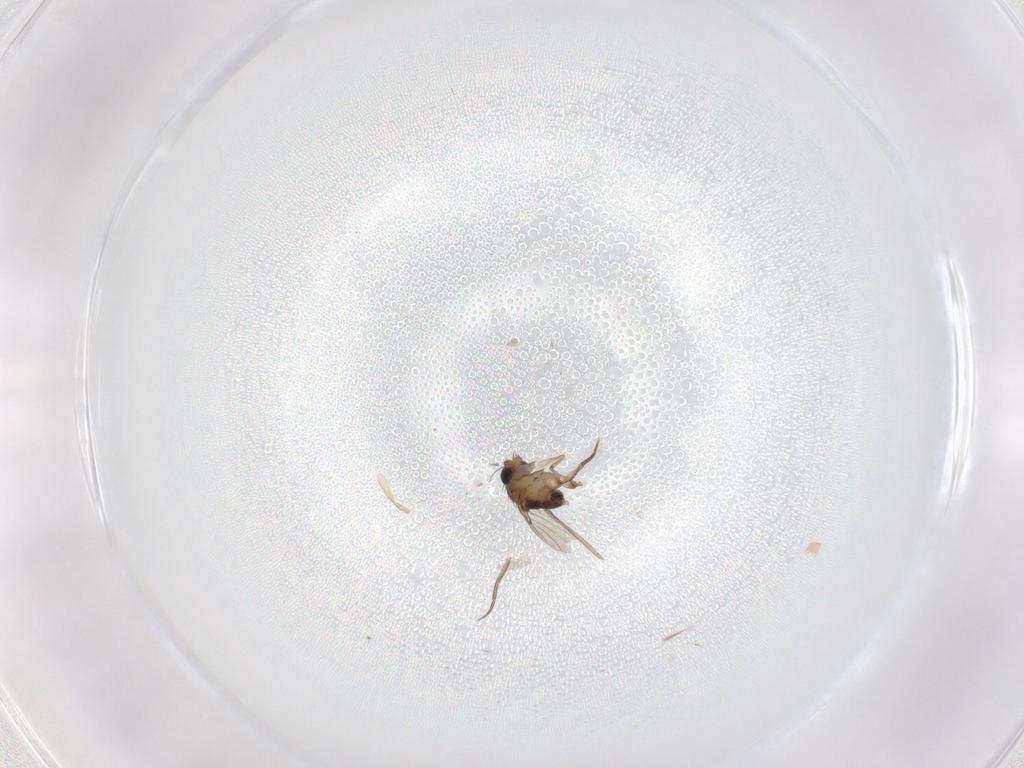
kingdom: Animalia
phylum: Arthropoda
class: Insecta
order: Diptera
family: Phoridae
